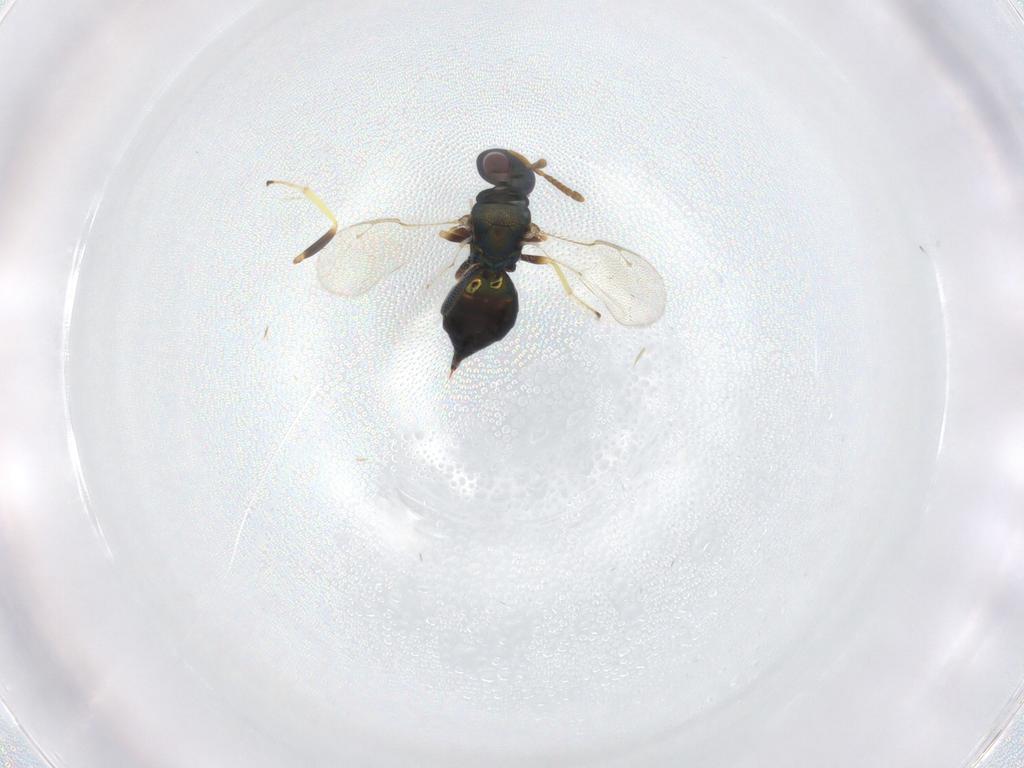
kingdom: Animalia
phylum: Arthropoda
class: Insecta
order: Hymenoptera
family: Pteromalidae
